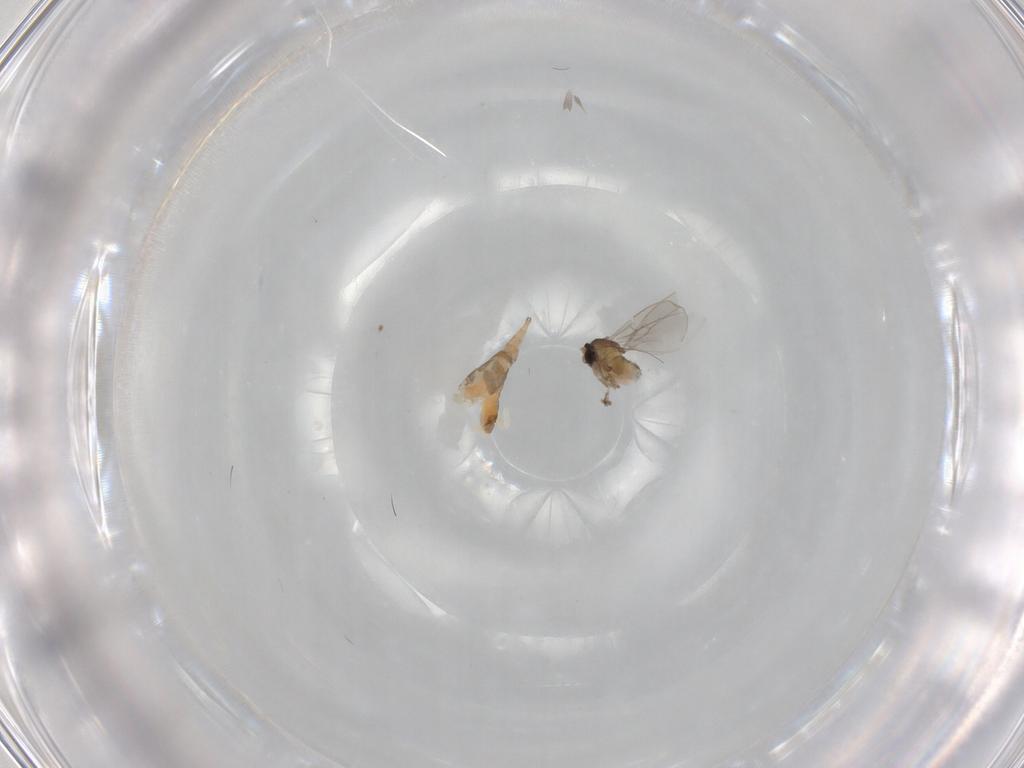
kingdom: Animalia
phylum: Arthropoda
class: Insecta
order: Diptera
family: Cecidomyiidae
